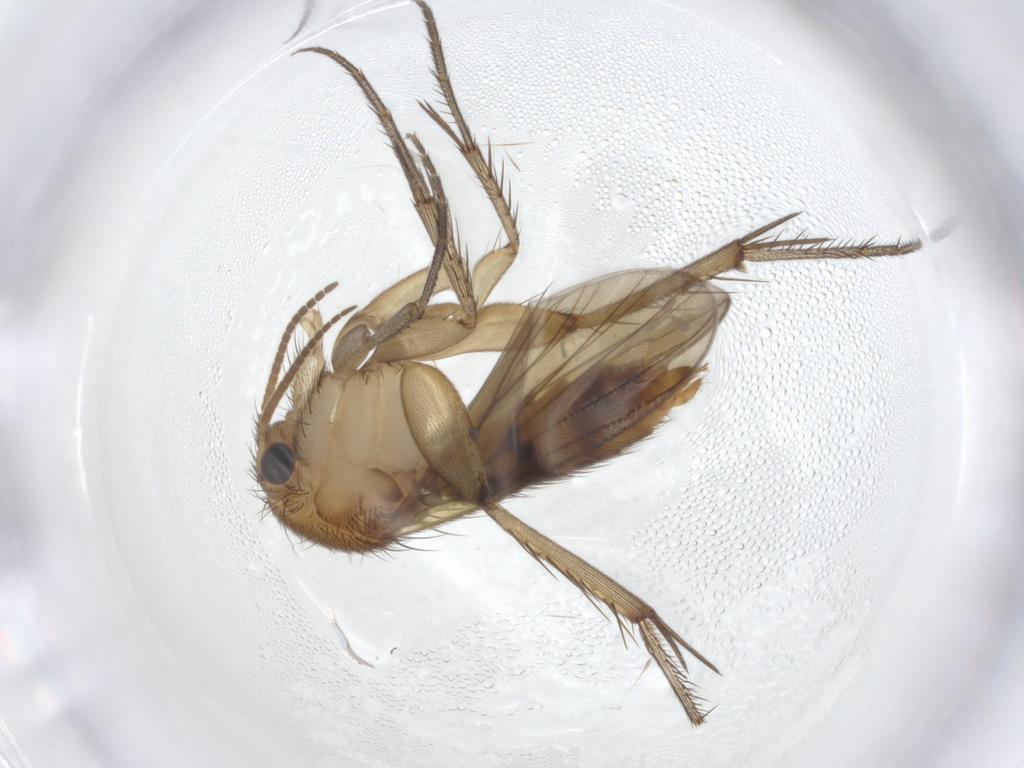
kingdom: Animalia
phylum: Arthropoda
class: Insecta
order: Diptera
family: Mycetophilidae
